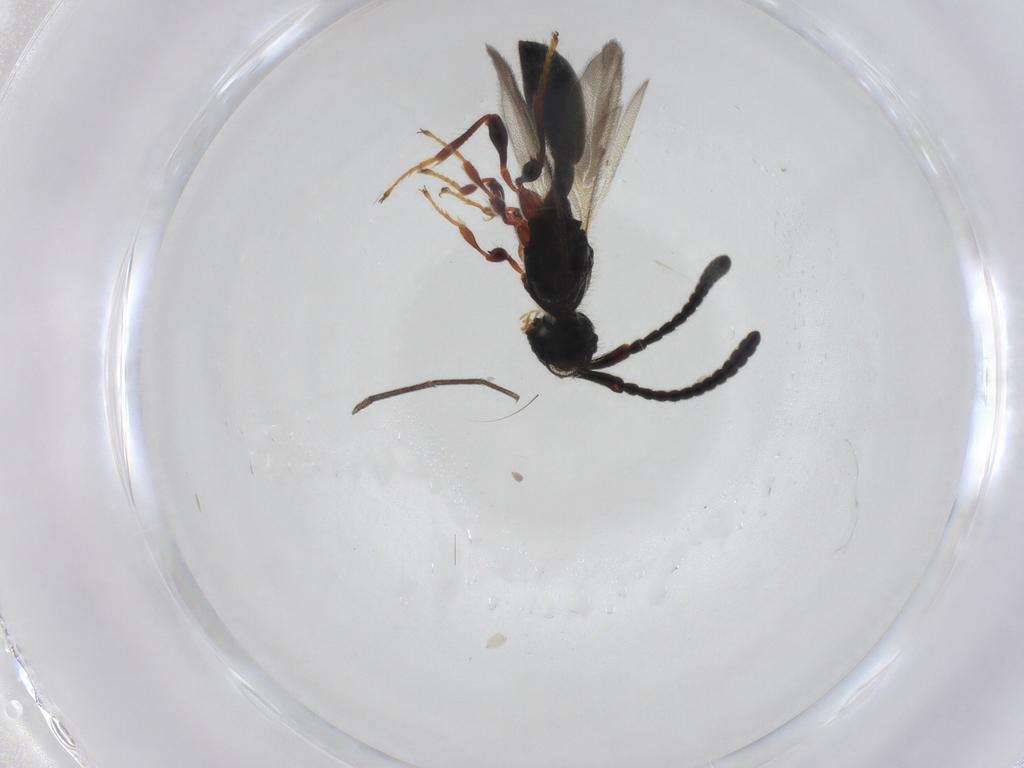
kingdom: Animalia
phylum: Arthropoda
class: Insecta
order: Hymenoptera
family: Diapriidae
